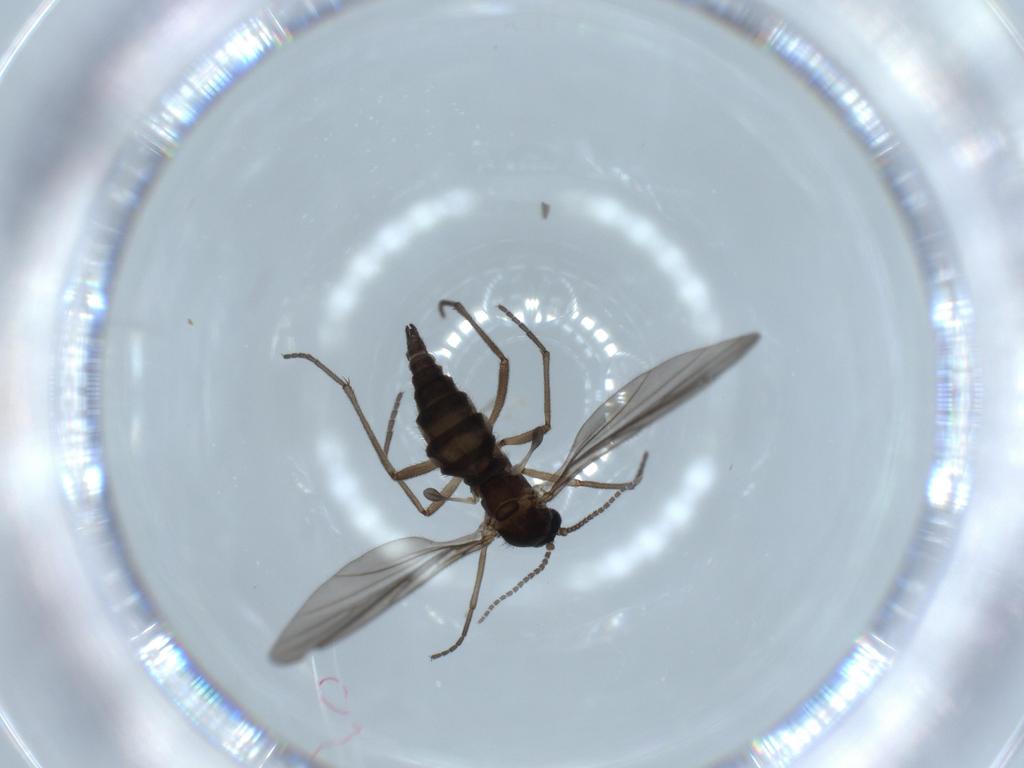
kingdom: Animalia
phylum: Arthropoda
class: Insecta
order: Diptera
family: Sciaridae
